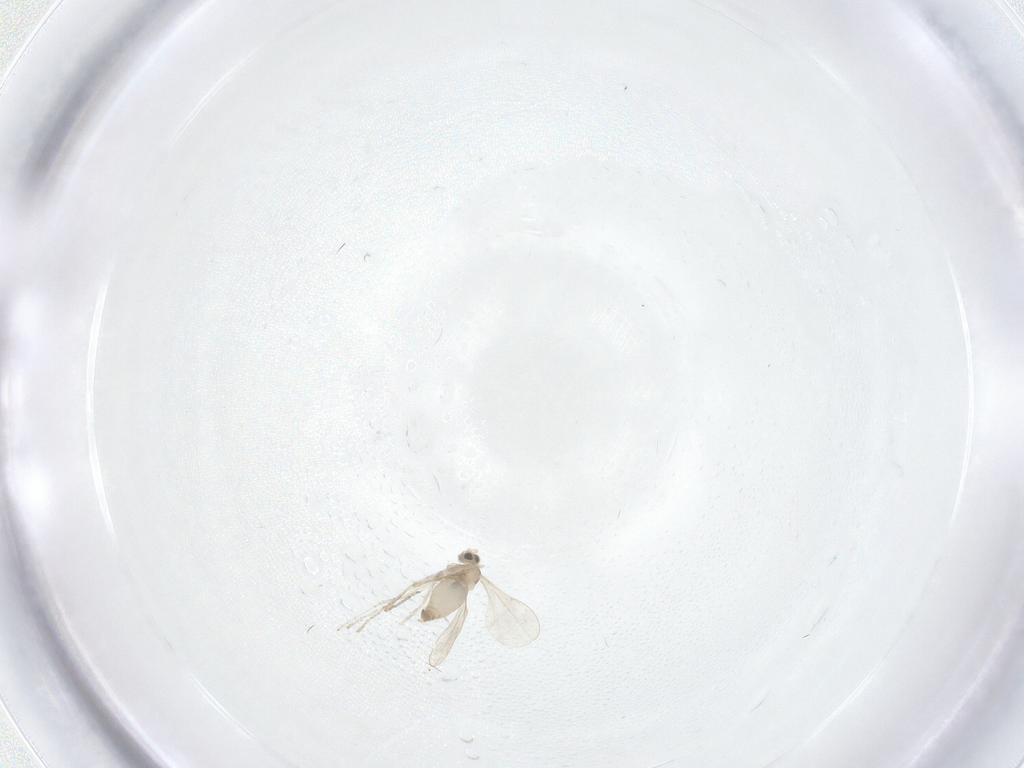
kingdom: Animalia
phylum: Arthropoda
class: Insecta
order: Diptera
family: Cecidomyiidae
